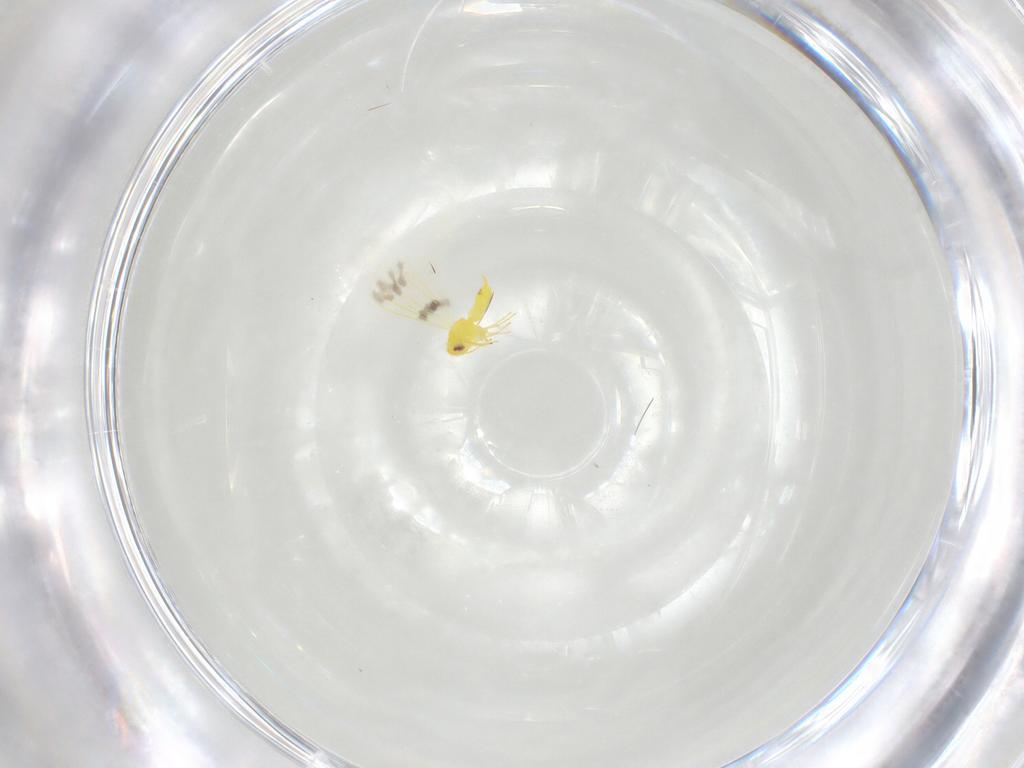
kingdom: Animalia
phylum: Arthropoda
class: Insecta
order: Hemiptera
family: Aleyrodidae
